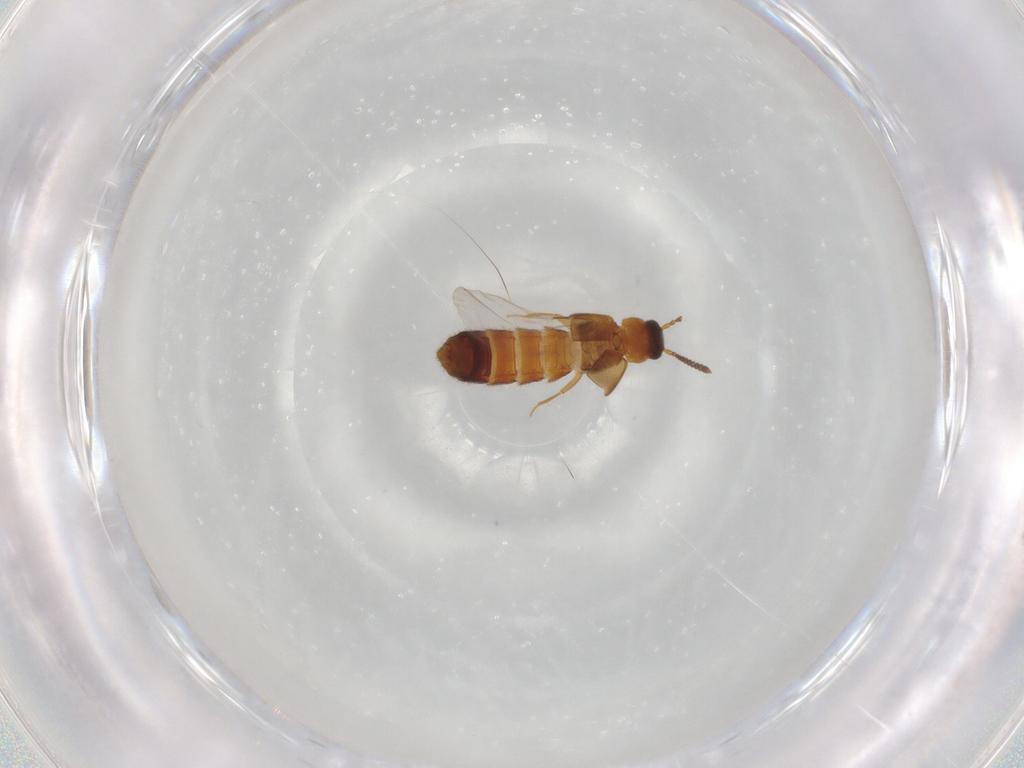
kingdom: Animalia
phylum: Arthropoda
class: Insecta
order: Coleoptera
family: Staphylinidae
